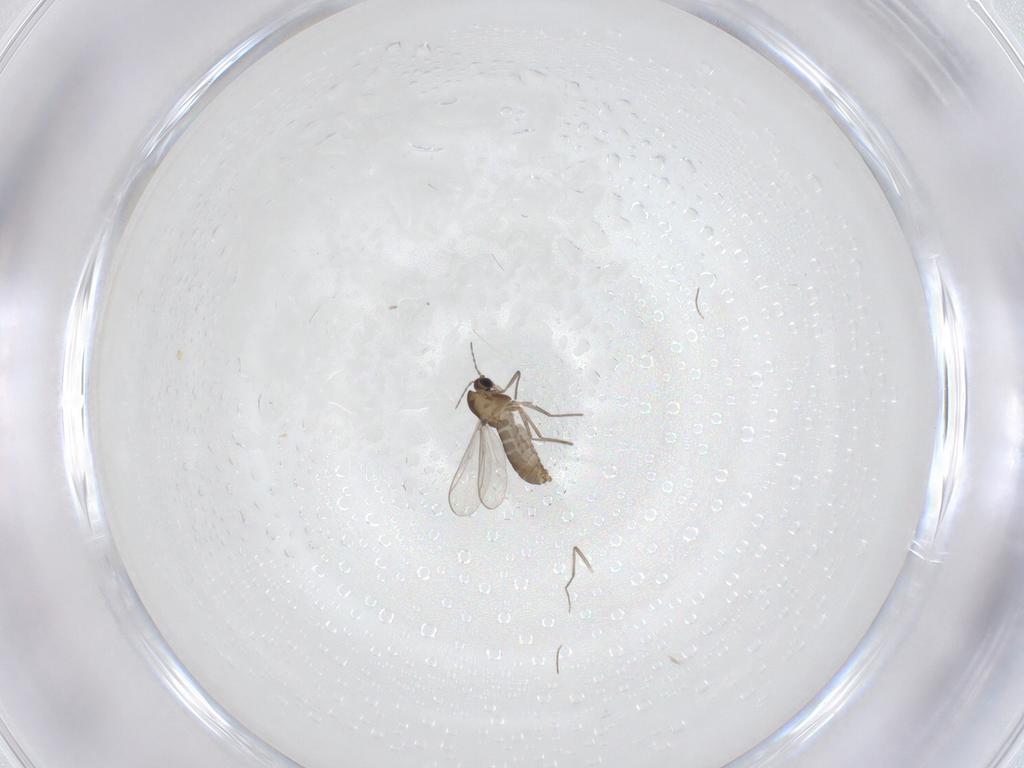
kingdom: Animalia
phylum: Arthropoda
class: Insecta
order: Diptera
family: Chironomidae
